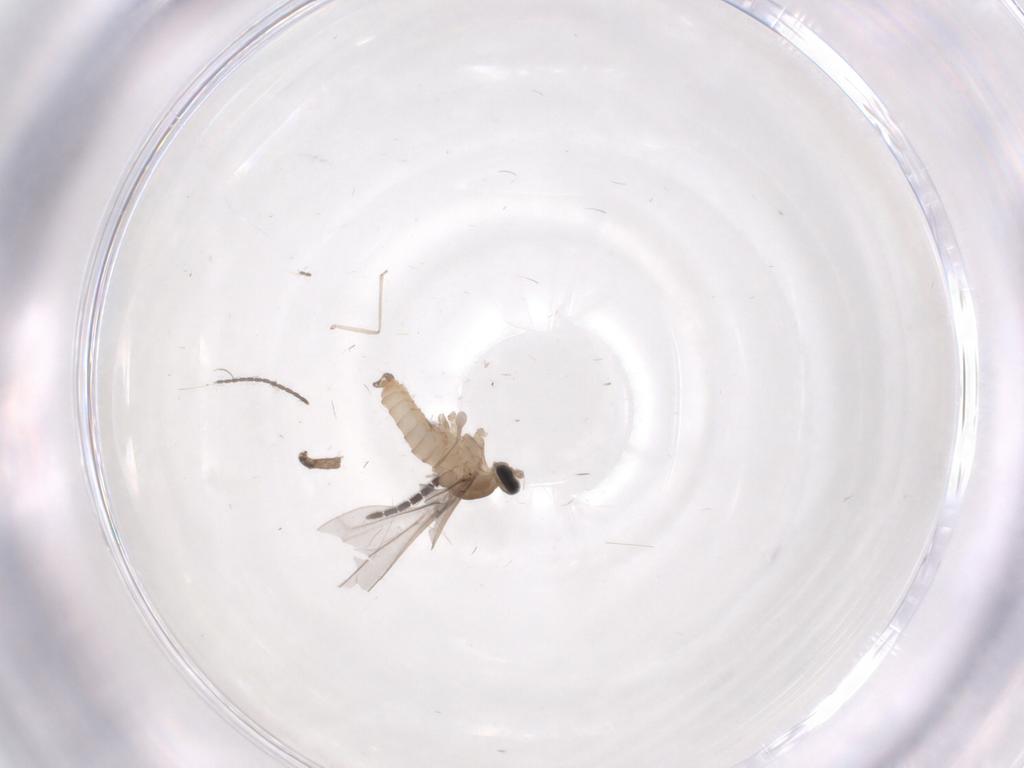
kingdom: Animalia
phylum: Arthropoda
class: Insecta
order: Diptera
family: Cecidomyiidae
